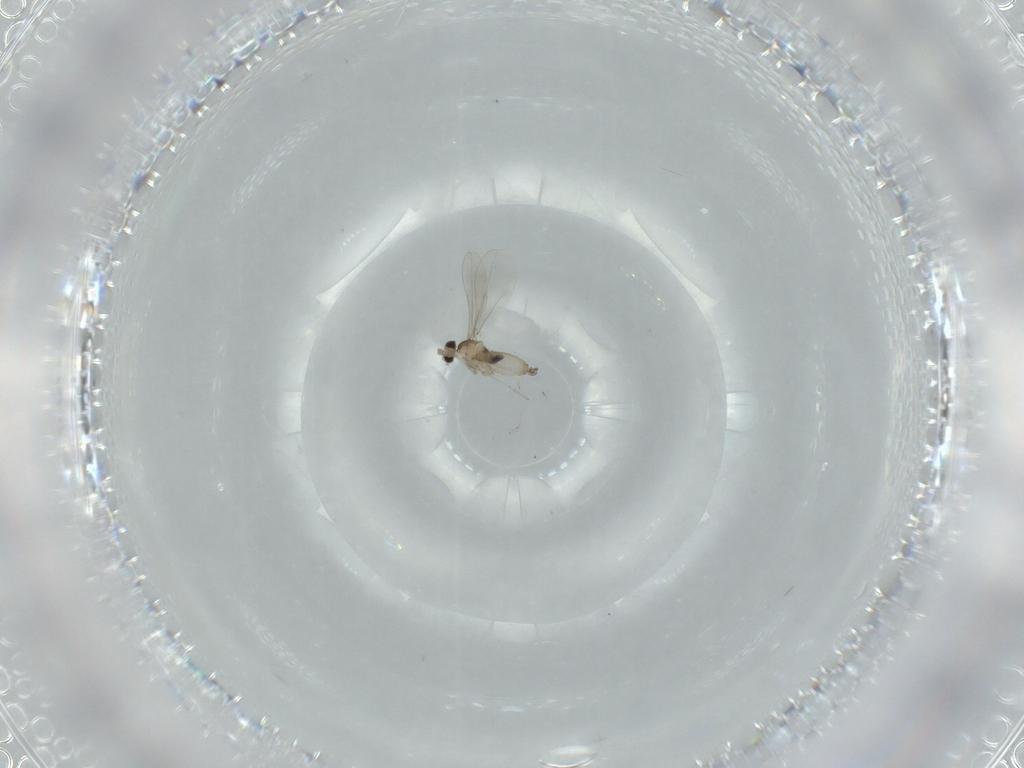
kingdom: Animalia
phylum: Arthropoda
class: Insecta
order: Diptera
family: Cecidomyiidae
